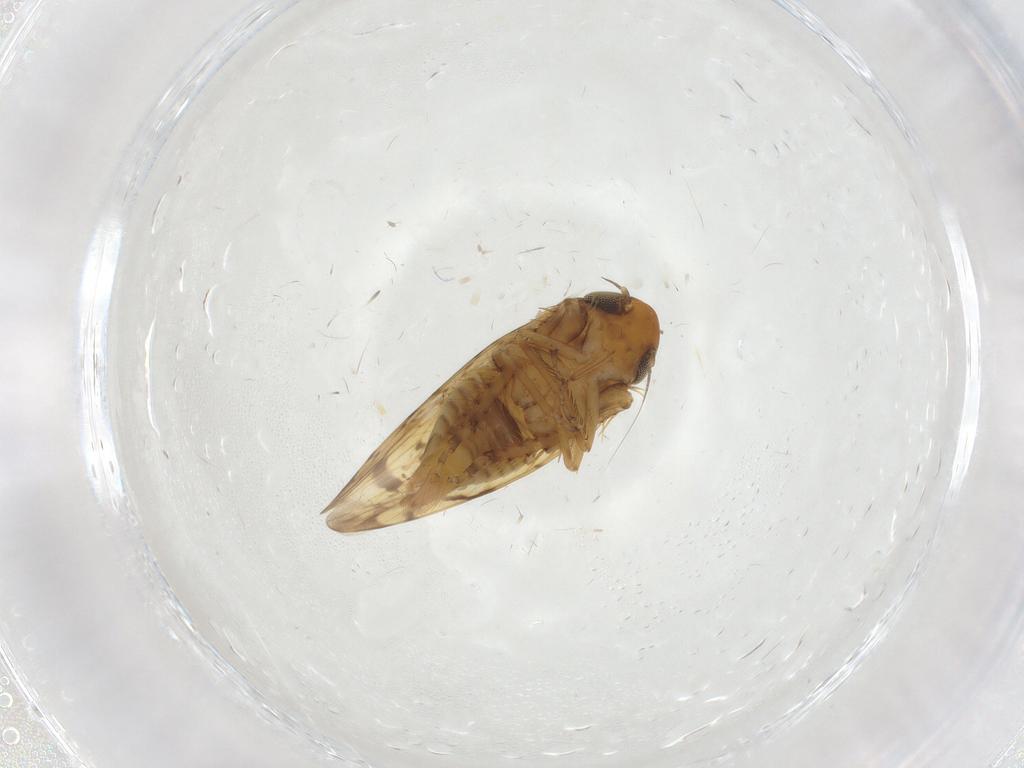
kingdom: Animalia
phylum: Arthropoda
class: Insecta
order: Hemiptera
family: Cicadellidae
